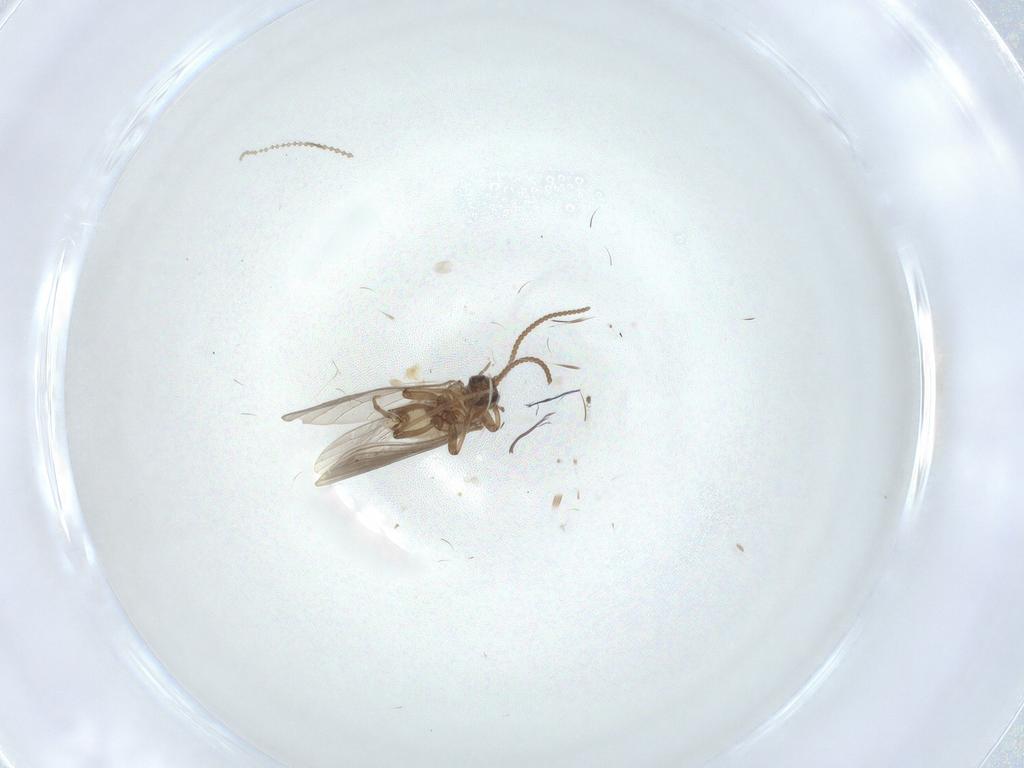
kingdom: Animalia
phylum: Arthropoda
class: Insecta
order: Neuroptera
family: Coniopterygidae
